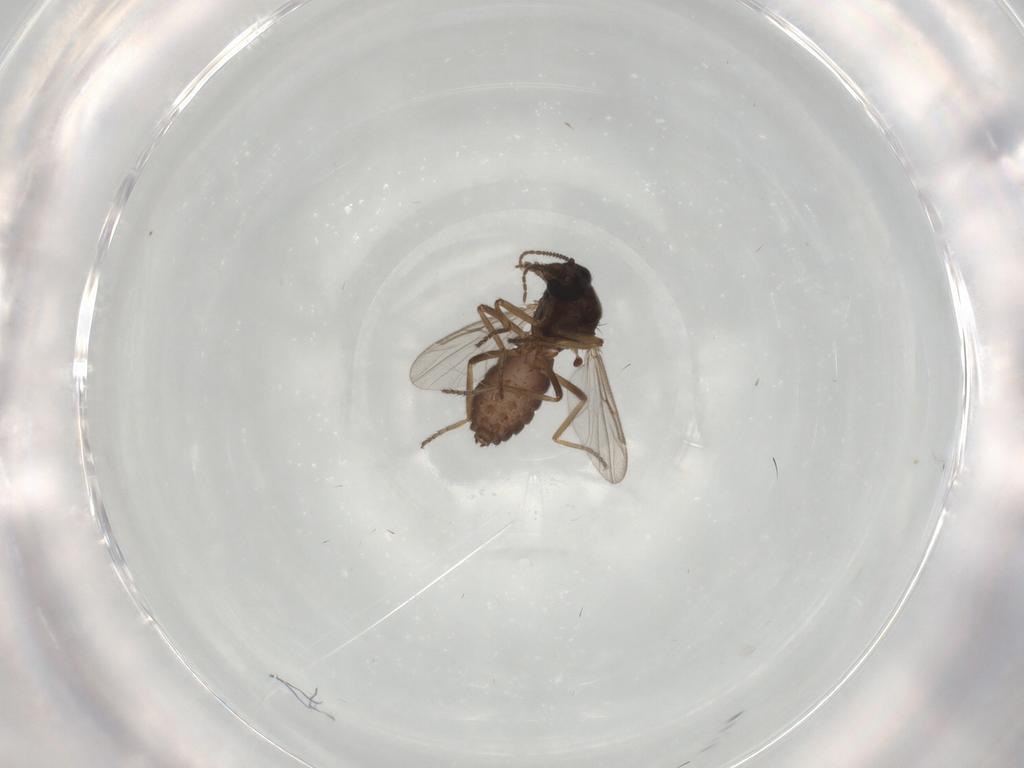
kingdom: Animalia
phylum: Arthropoda
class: Insecta
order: Diptera
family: Ceratopogonidae
